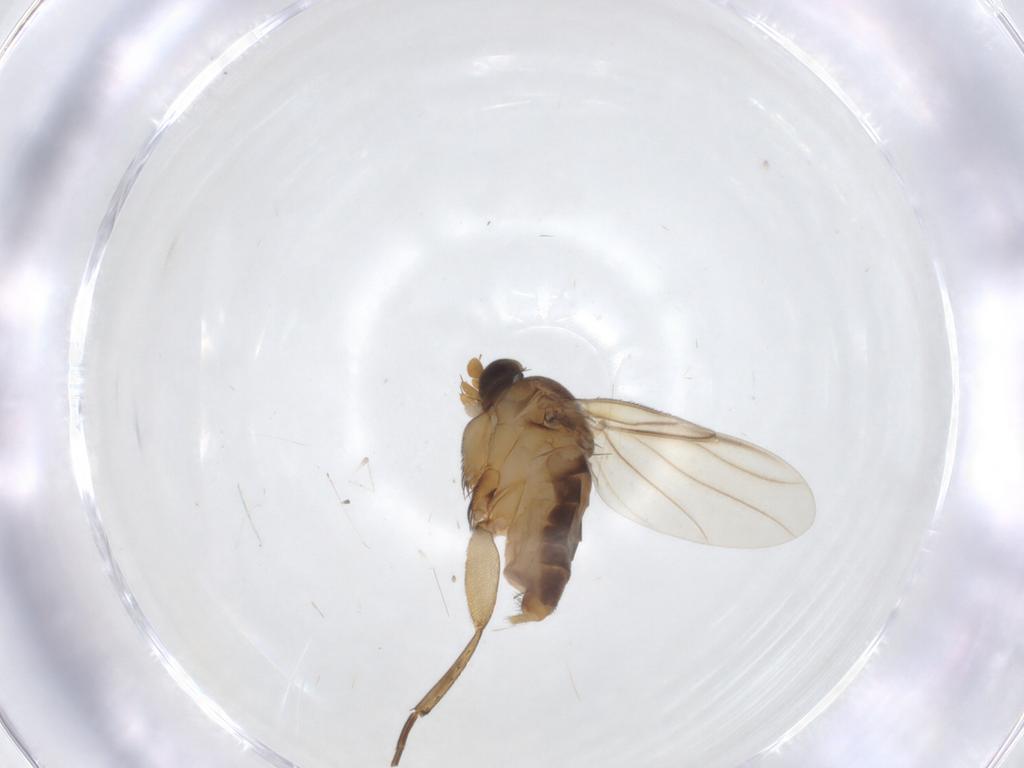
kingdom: Animalia
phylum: Arthropoda
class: Insecta
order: Diptera
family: Phoridae
